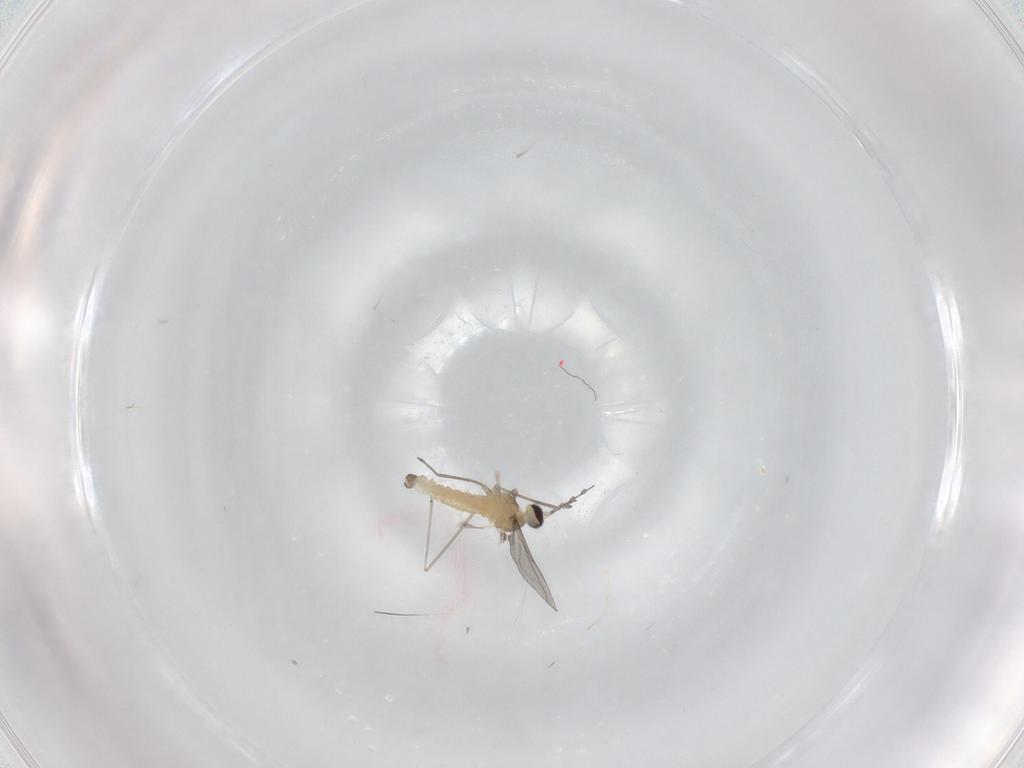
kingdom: Animalia
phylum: Arthropoda
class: Insecta
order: Diptera
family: Cecidomyiidae
